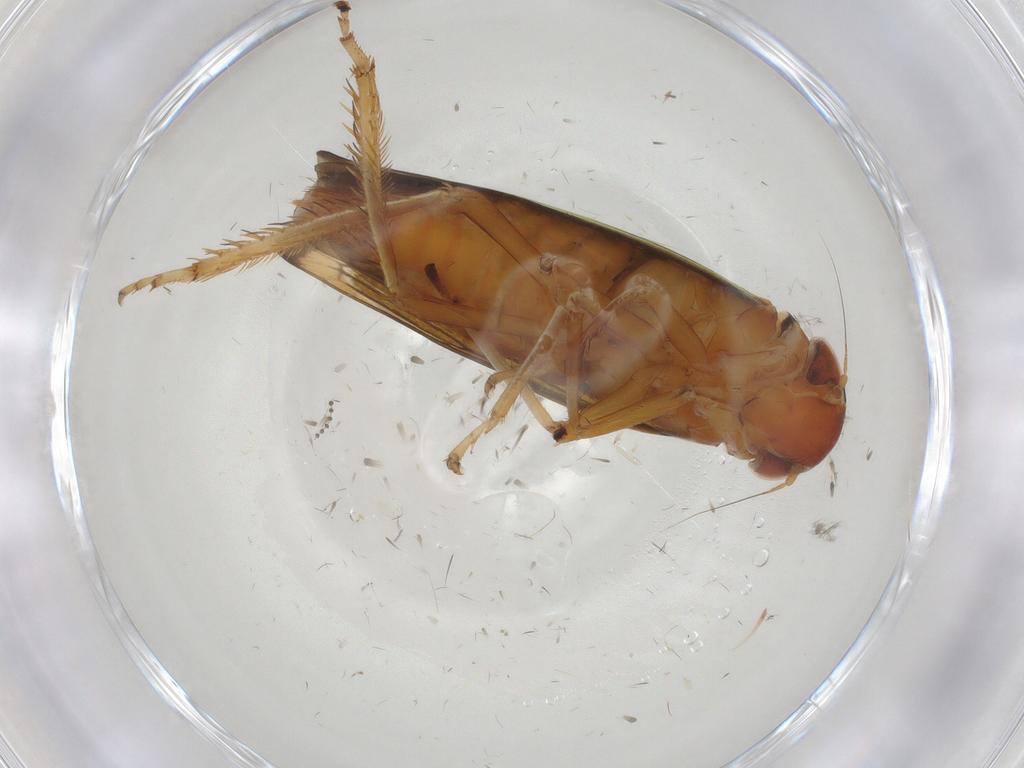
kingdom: Animalia
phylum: Arthropoda
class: Insecta
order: Hemiptera
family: Cicadellidae
